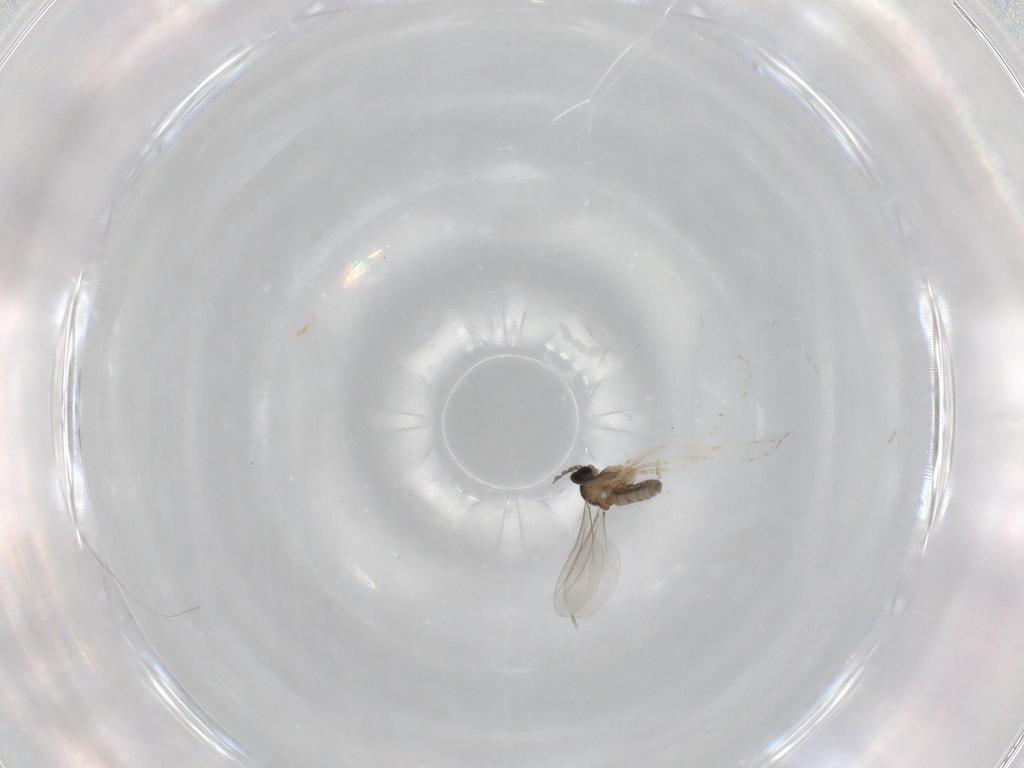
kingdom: Animalia
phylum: Arthropoda
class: Insecta
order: Diptera
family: Cecidomyiidae
